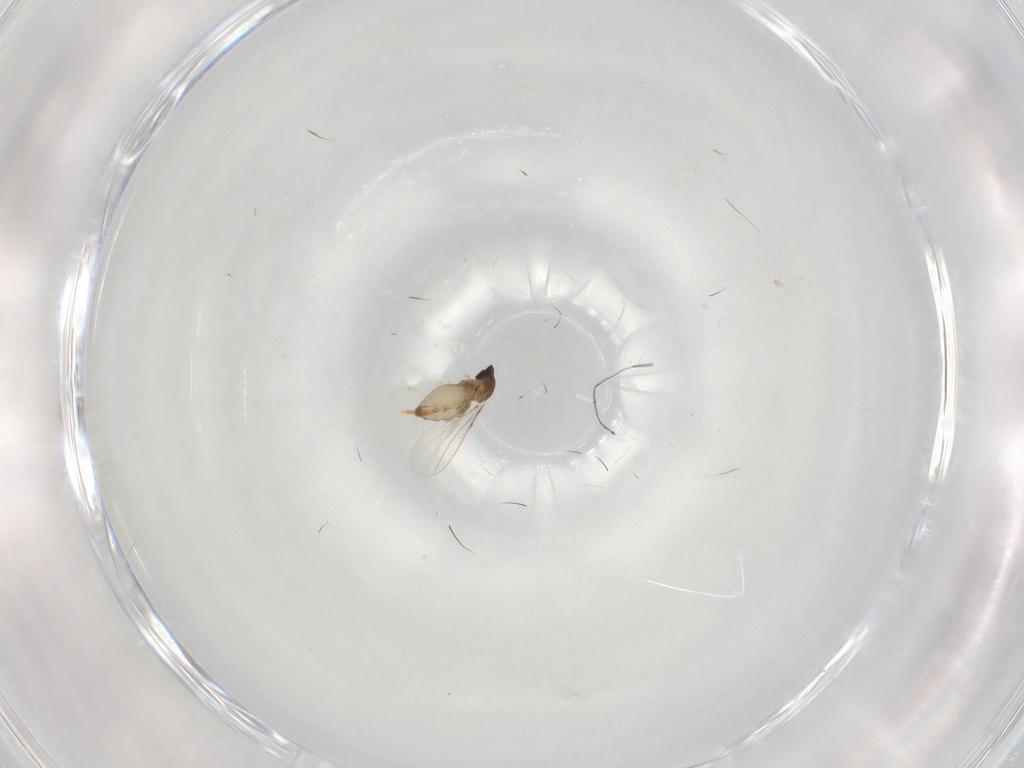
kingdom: Animalia
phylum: Arthropoda
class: Insecta
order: Diptera
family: Cecidomyiidae
